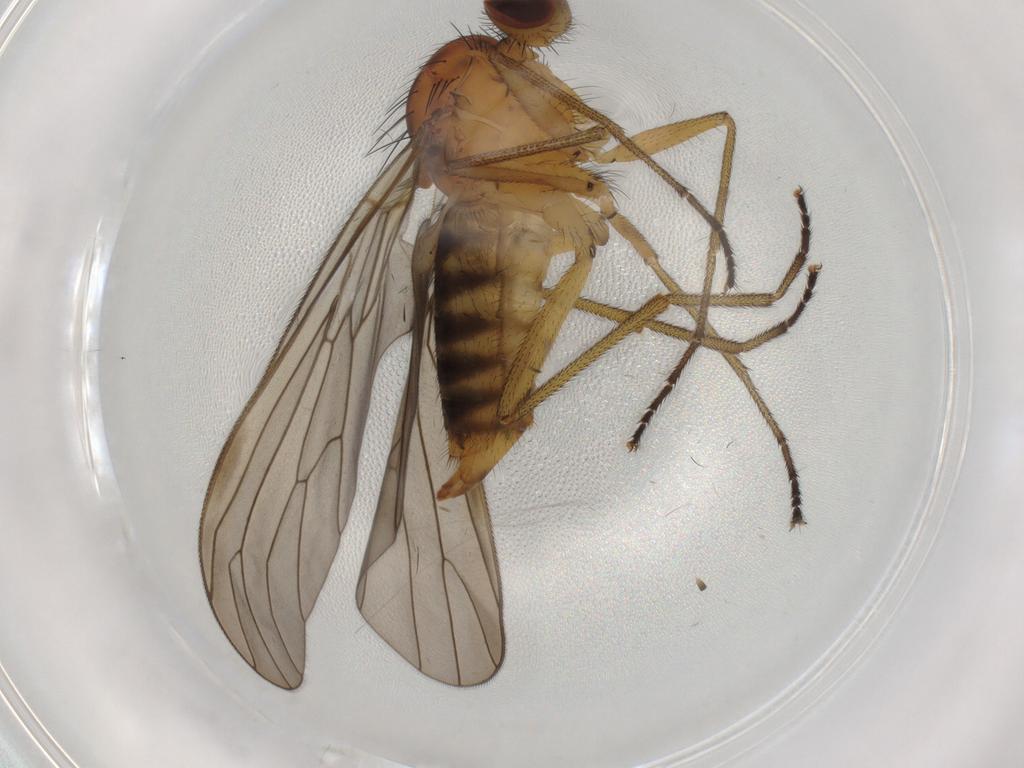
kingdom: Animalia
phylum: Arthropoda
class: Insecta
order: Diptera
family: Brachystomatidae
